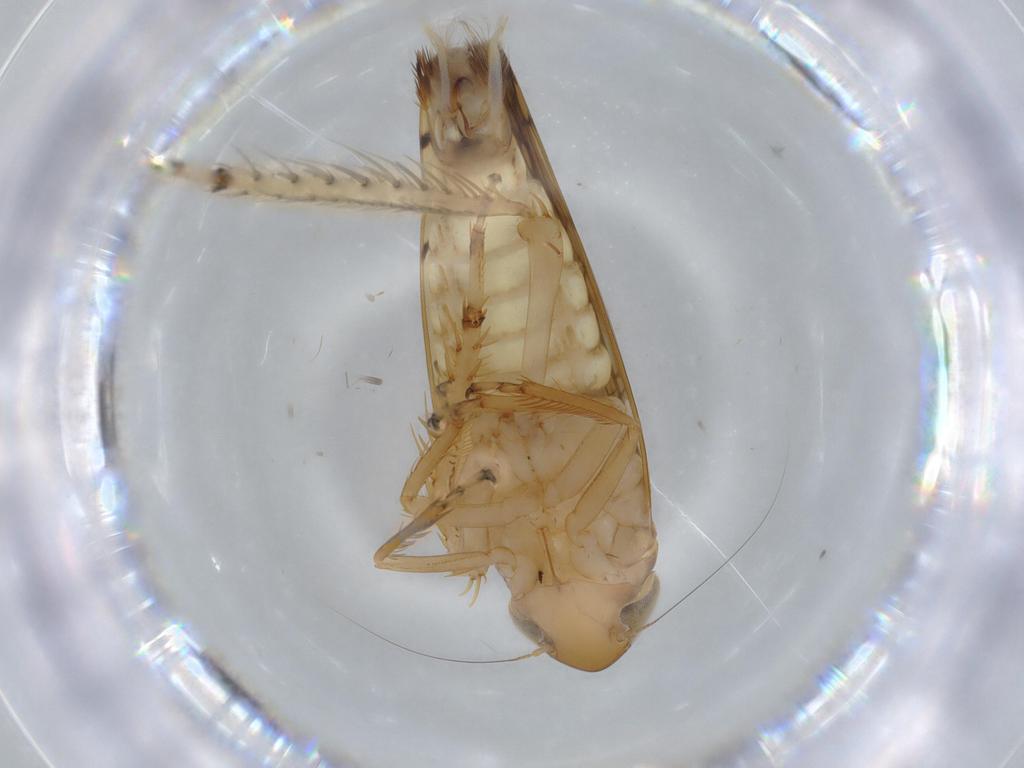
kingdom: Animalia
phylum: Arthropoda
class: Insecta
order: Hemiptera
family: Cicadellidae
